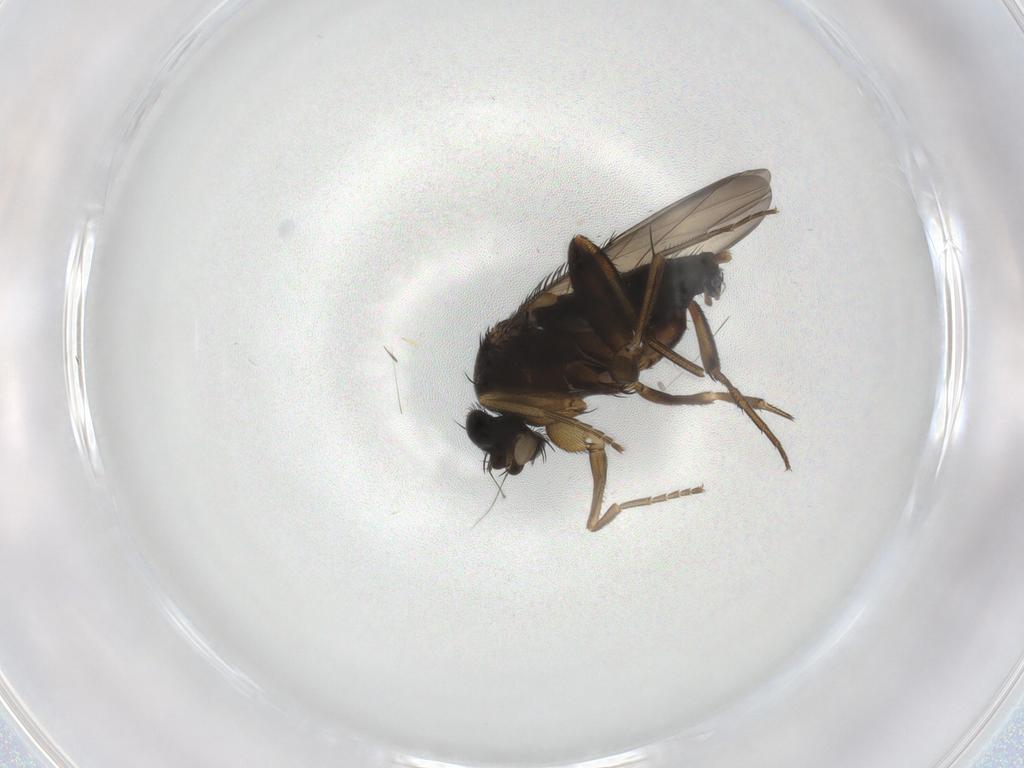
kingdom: Animalia
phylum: Arthropoda
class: Insecta
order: Diptera
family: Phoridae
